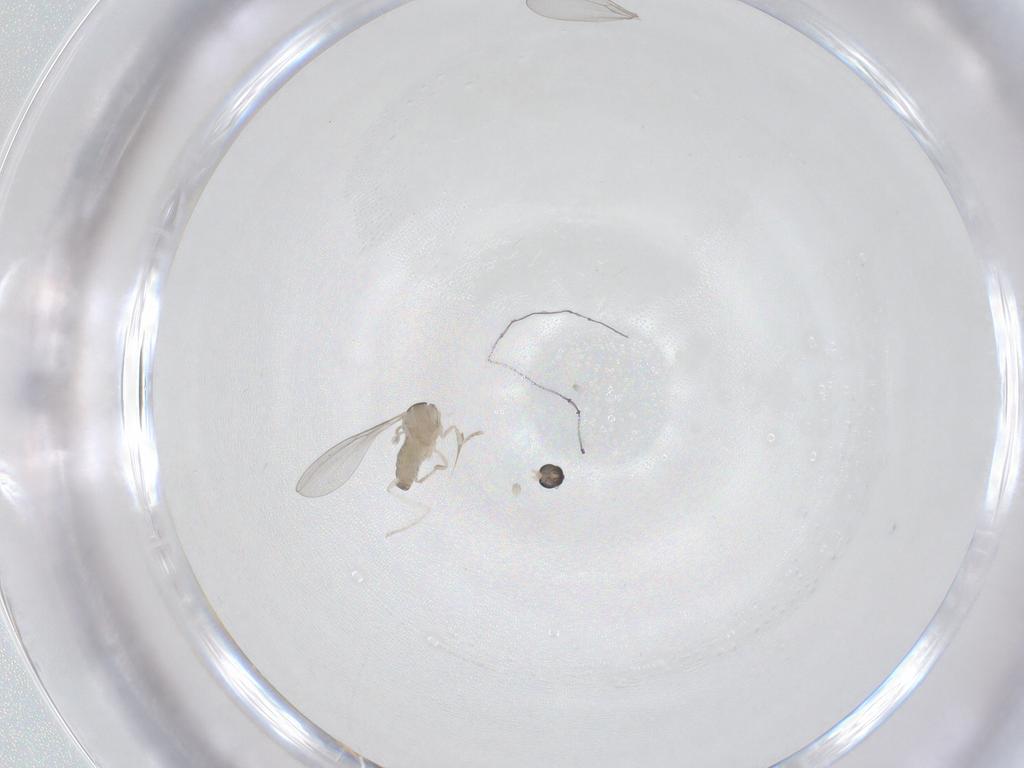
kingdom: Animalia
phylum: Arthropoda
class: Insecta
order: Diptera
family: Cecidomyiidae
